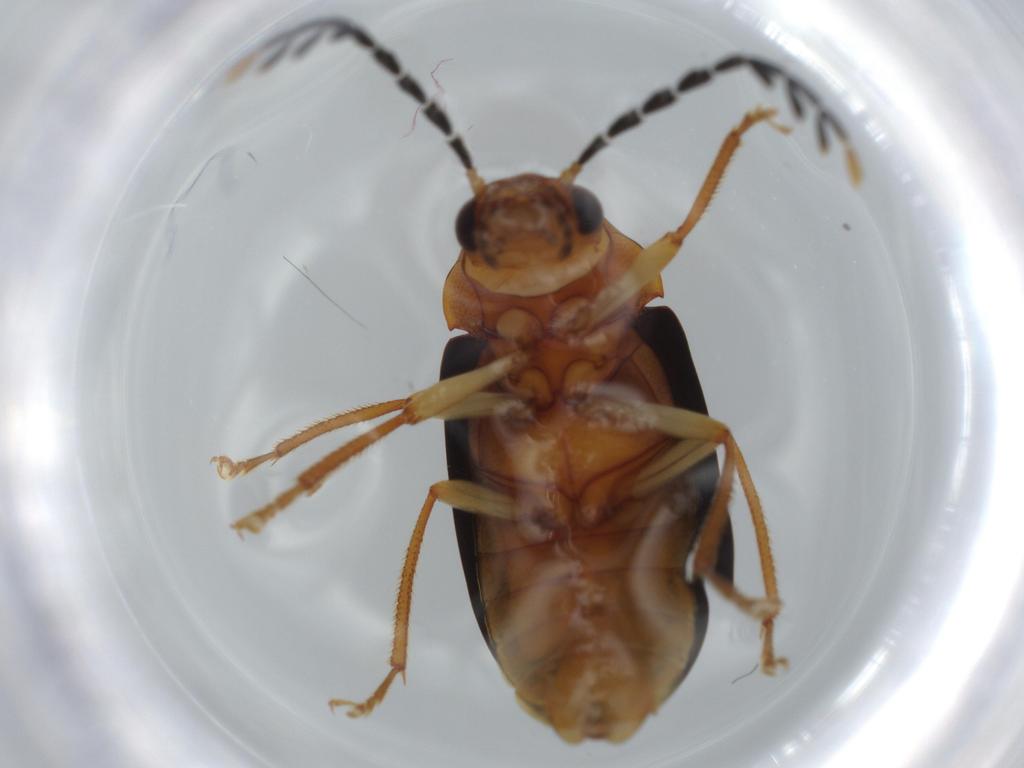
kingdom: Animalia
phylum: Arthropoda
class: Insecta
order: Coleoptera
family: Ptilodactylidae
